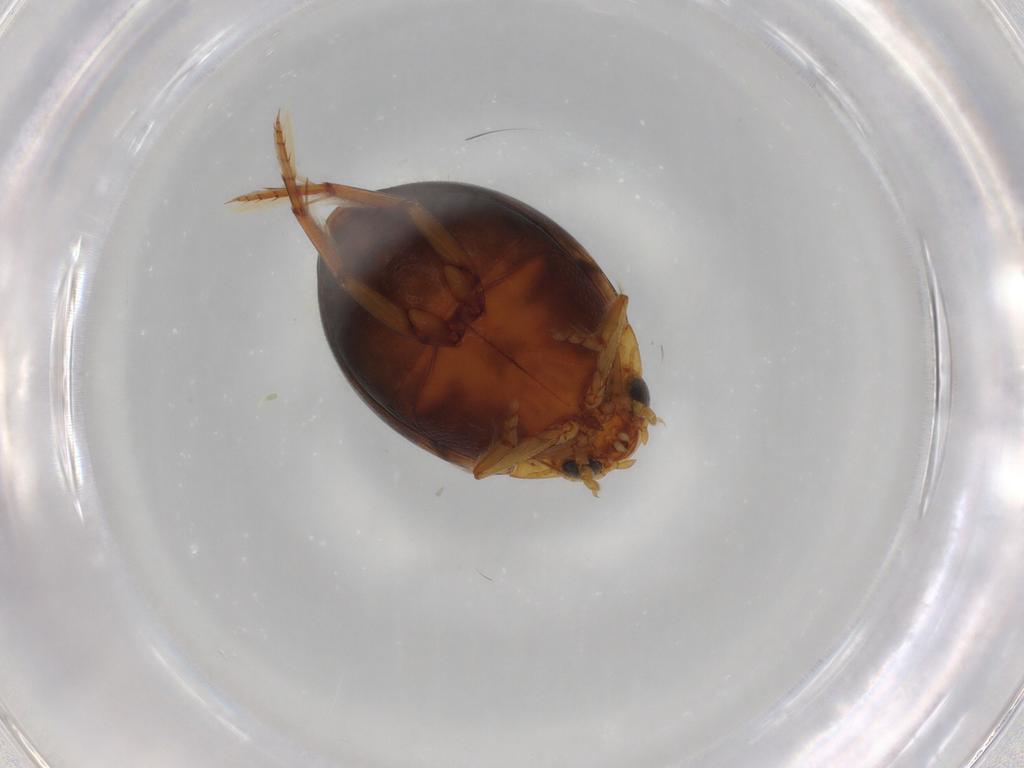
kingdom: Animalia
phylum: Arthropoda
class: Insecta
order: Coleoptera
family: Dytiscidae
